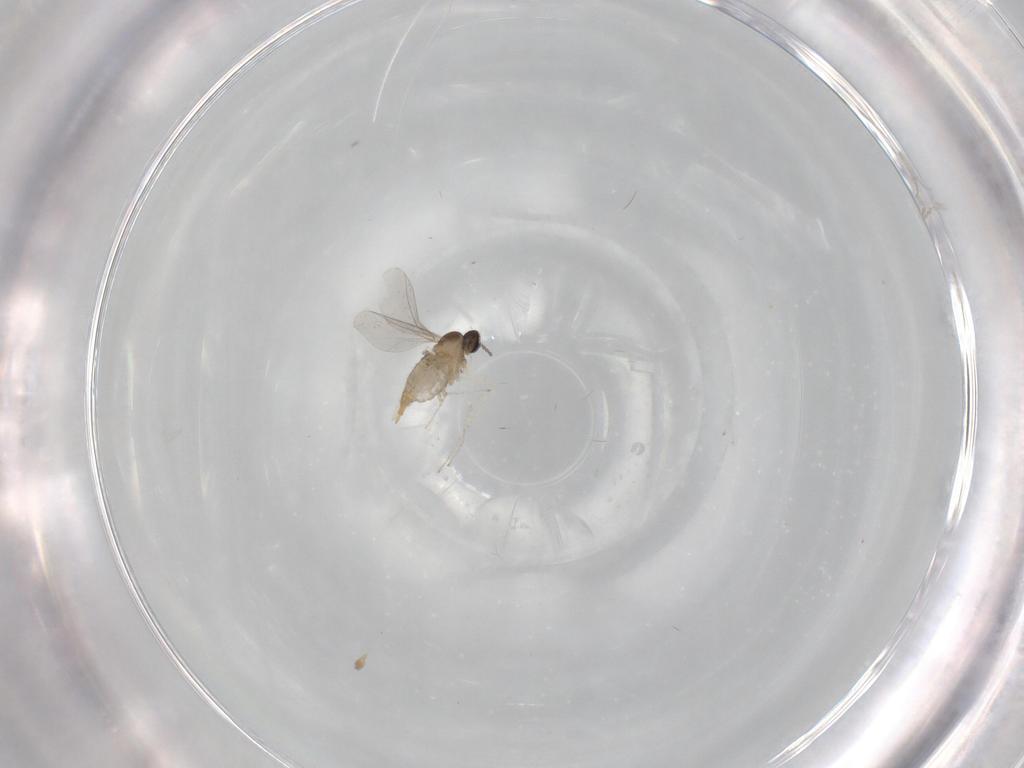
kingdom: Animalia
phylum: Arthropoda
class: Insecta
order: Diptera
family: Cecidomyiidae
